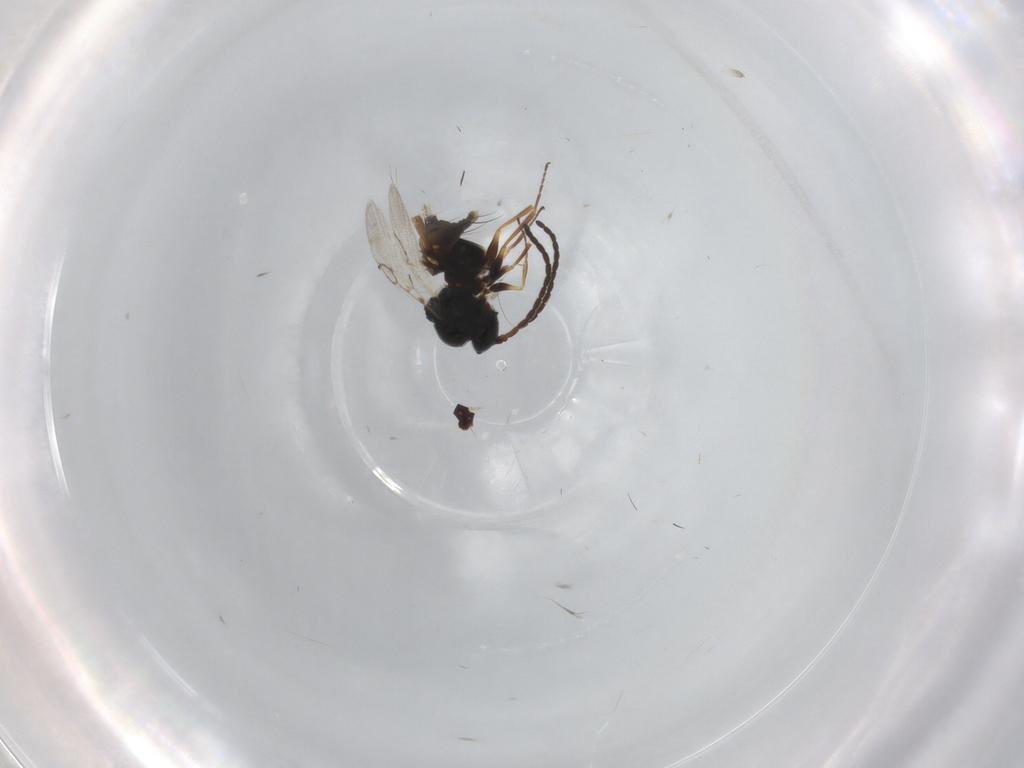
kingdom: Animalia
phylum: Arthropoda
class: Insecta
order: Hymenoptera
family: Figitidae
